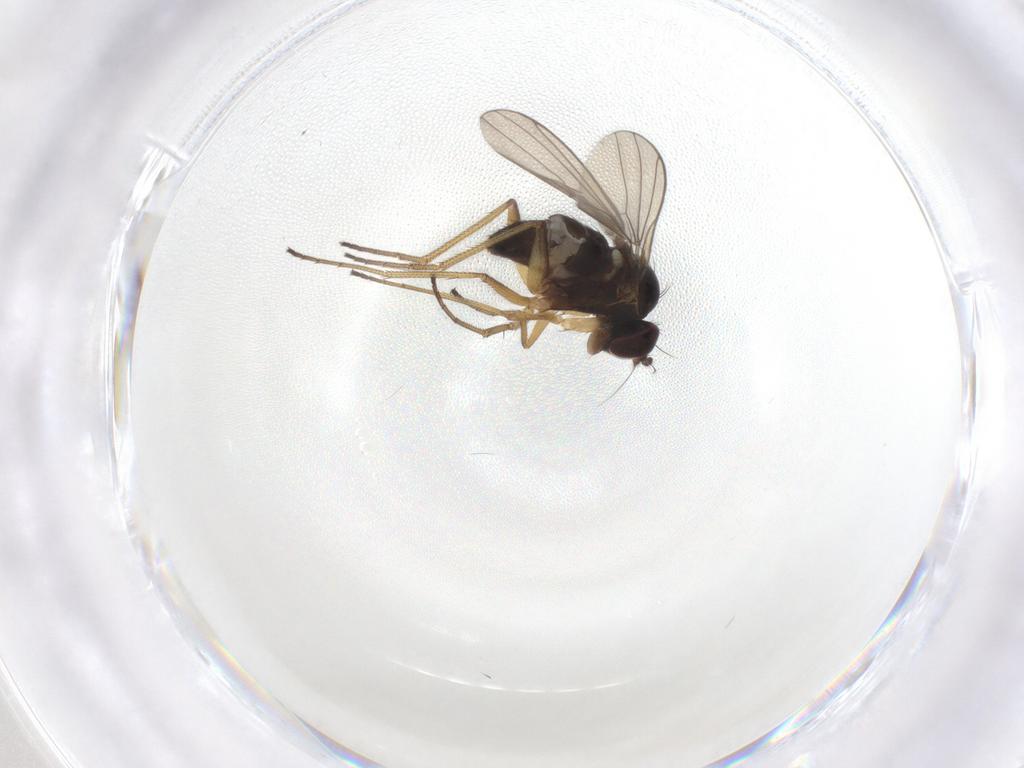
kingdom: Animalia
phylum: Arthropoda
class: Insecta
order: Diptera
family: Dolichopodidae
